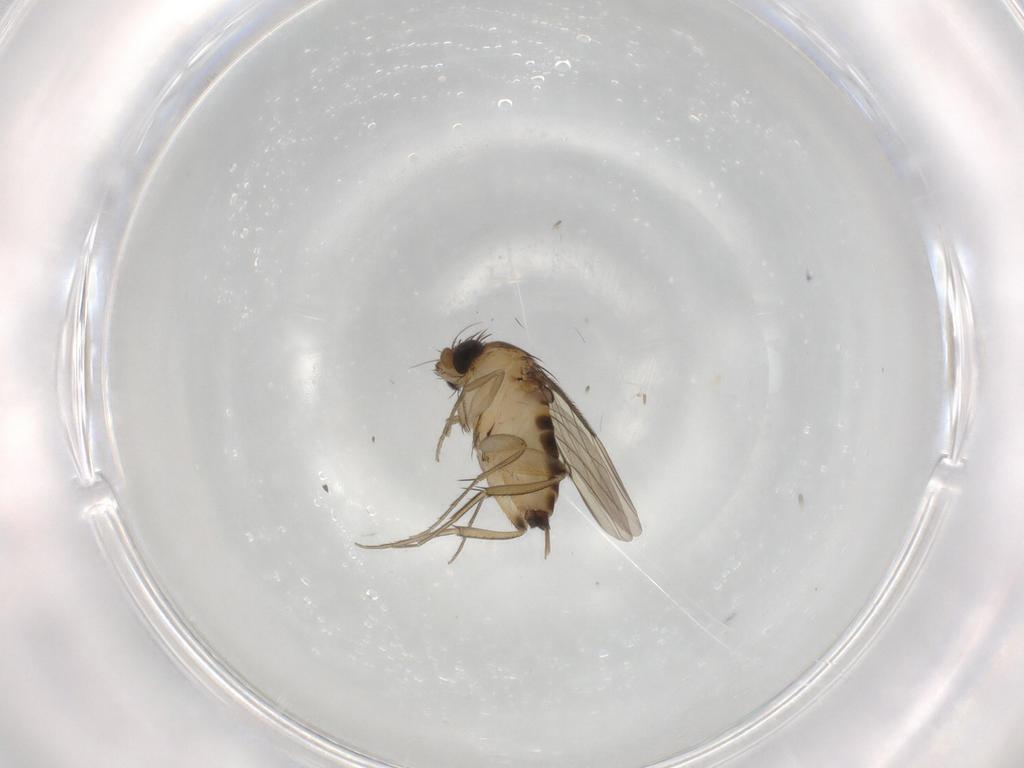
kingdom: Animalia
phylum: Arthropoda
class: Insecta
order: Diptera
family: Phoridae
